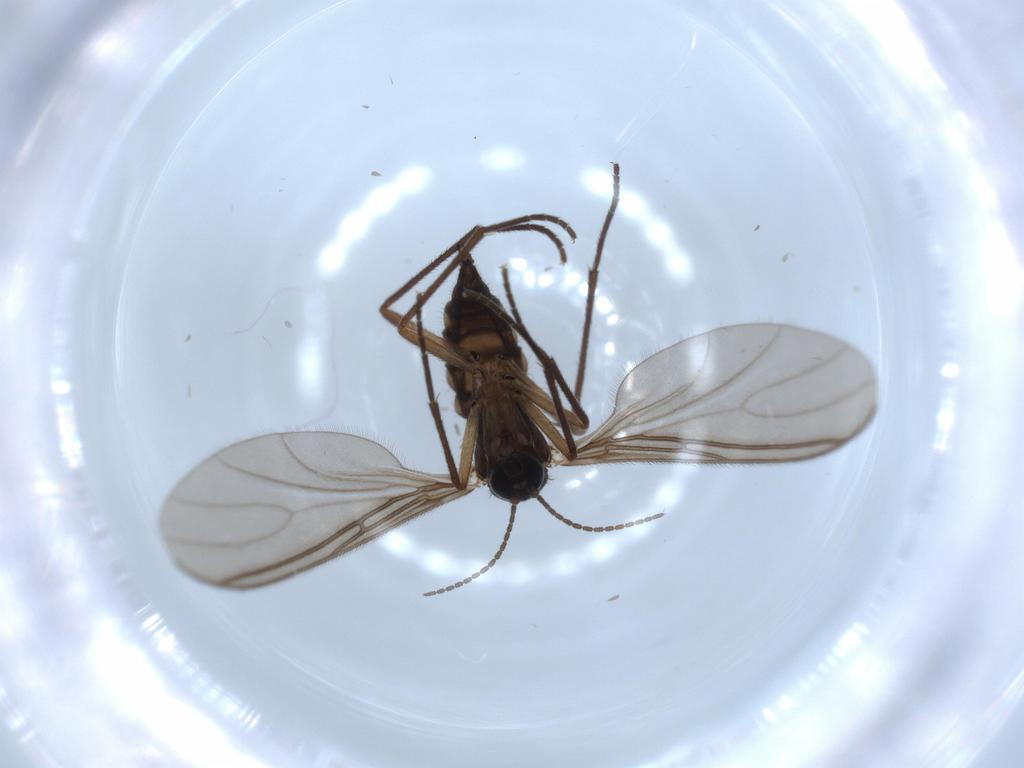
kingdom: Animalia
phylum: Arthropoda
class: Insecta
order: Diptera
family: Sciaridae
